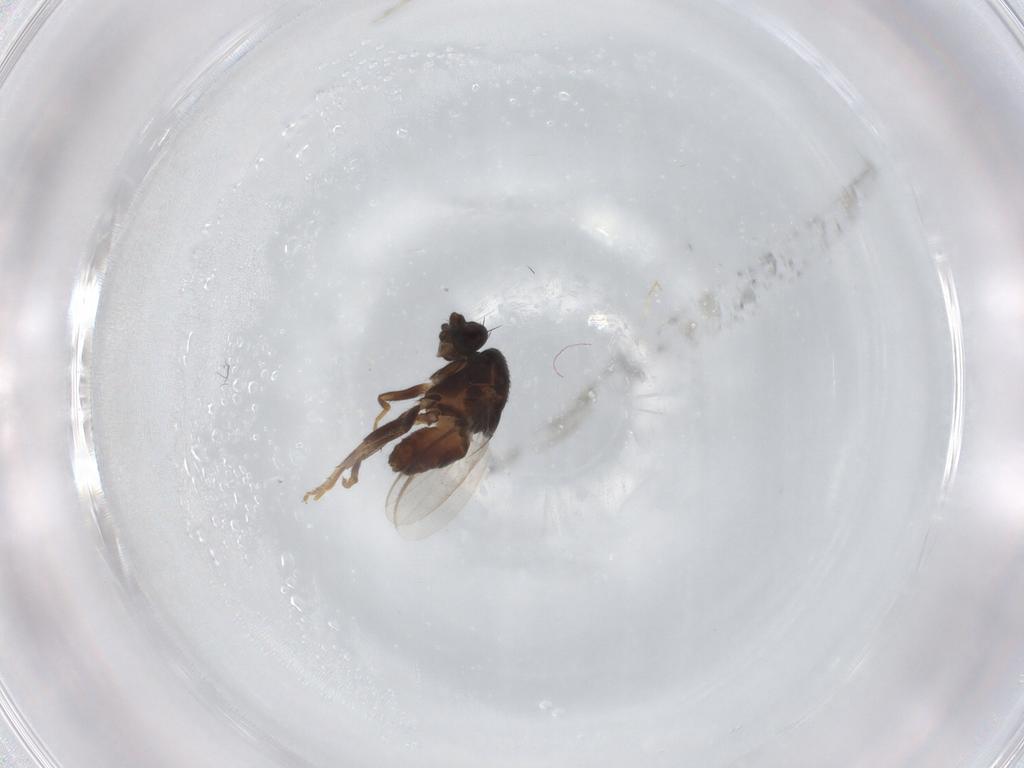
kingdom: Animalia
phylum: Arthropoda
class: Insecta
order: Diptera
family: Sphaeroceridae
